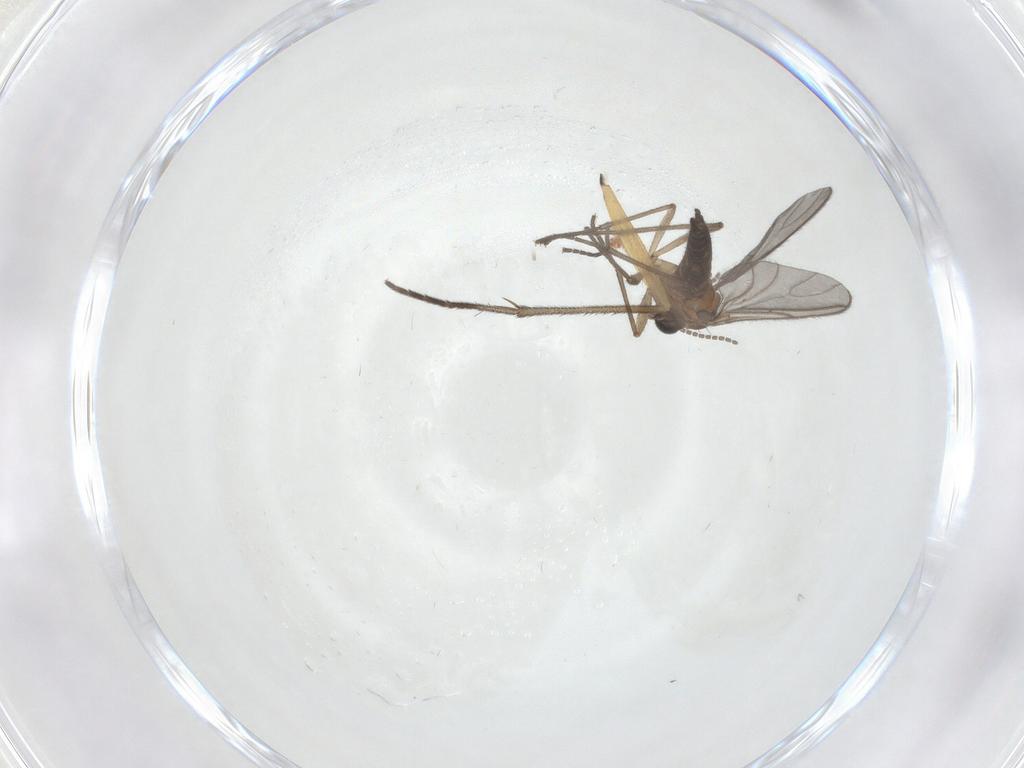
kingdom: Animalia
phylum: Arthropoda
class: Insecta
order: Diptera
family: Sciaridae
